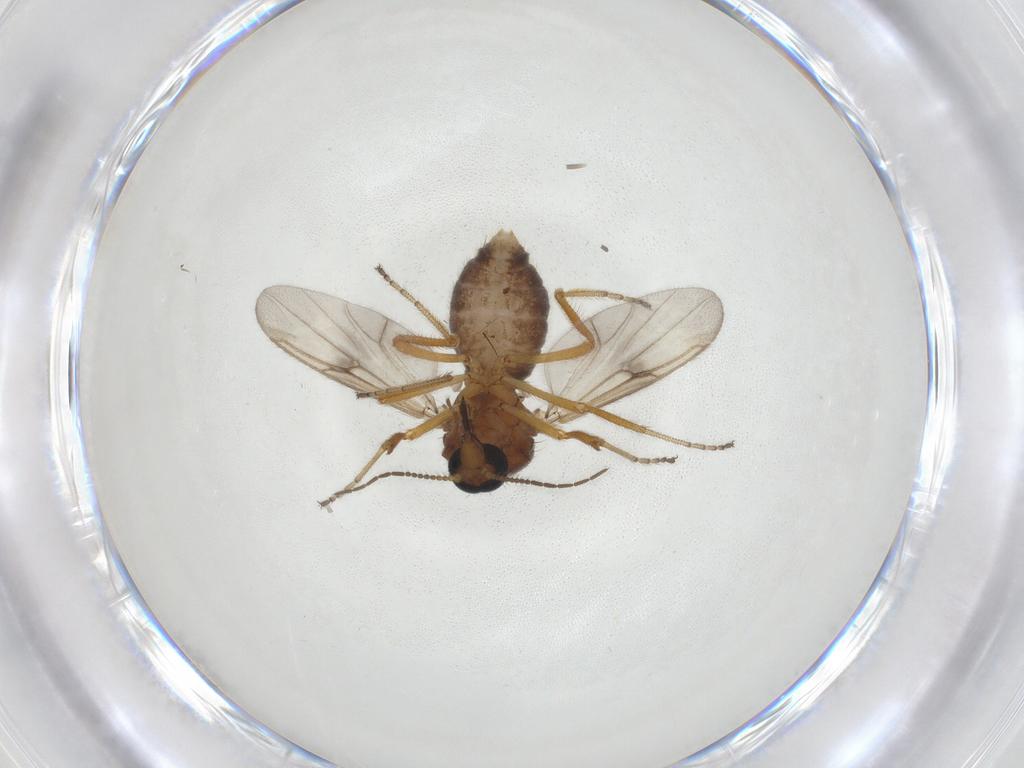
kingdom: Animalia
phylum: Arthropoda
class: Insecta
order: Diptera
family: Ceratopogonidae
